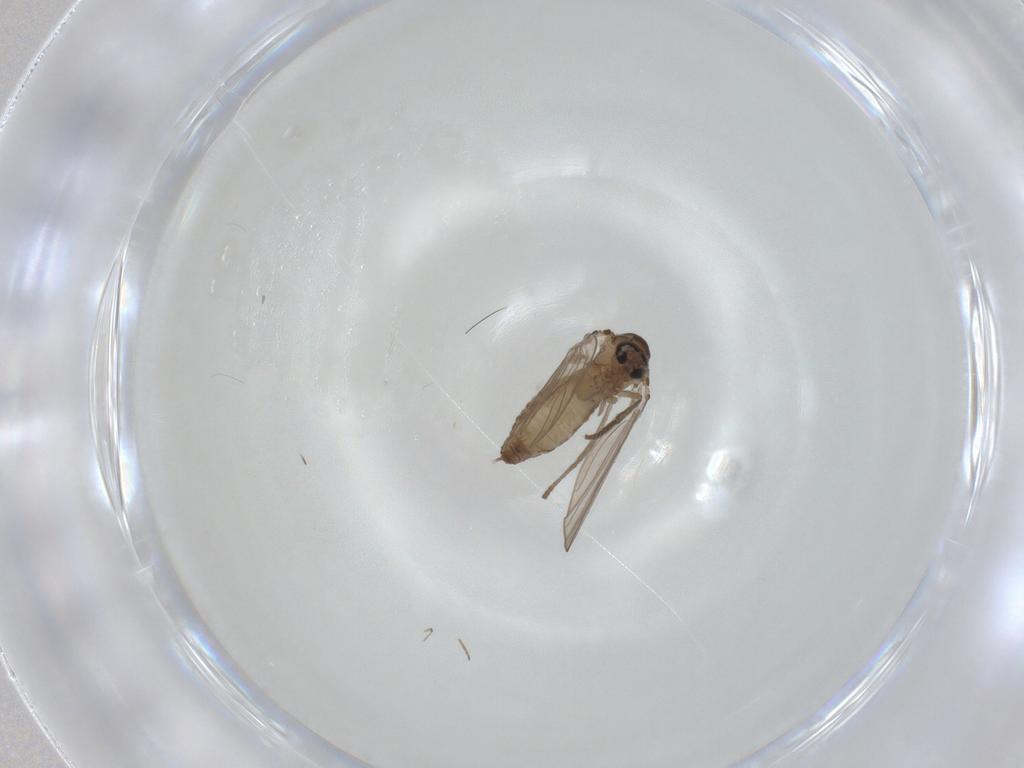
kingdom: Animalia
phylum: Arthropoda
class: Insecta
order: Diptera
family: Psychodidae
